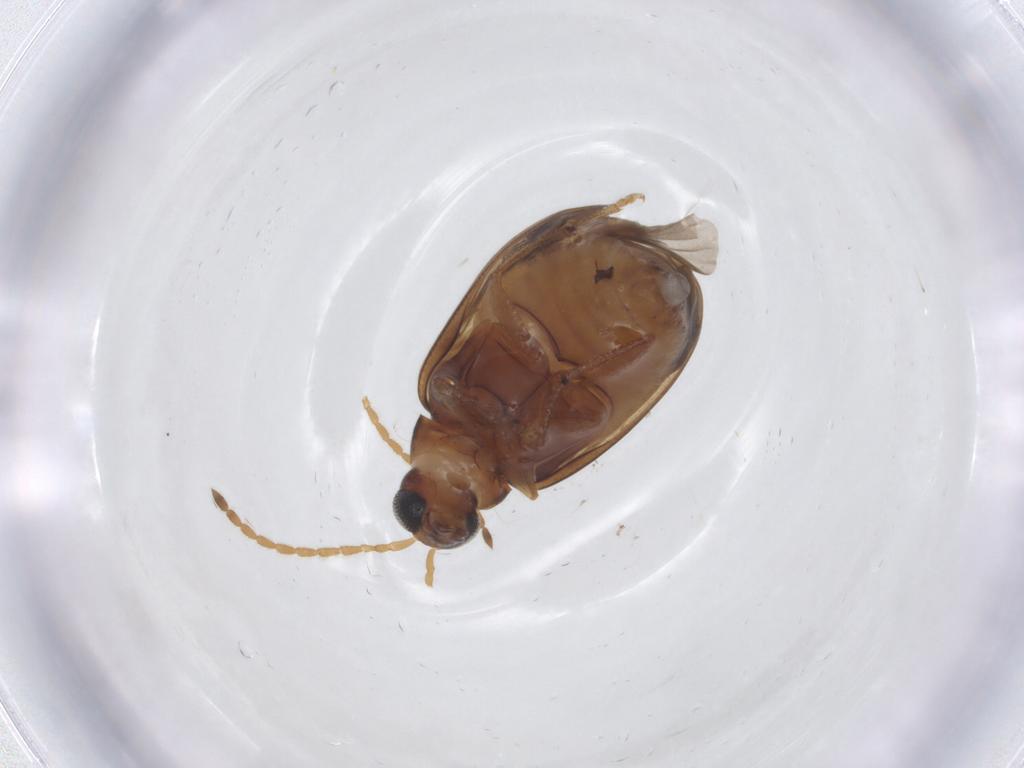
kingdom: Animalia
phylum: Arthropoda
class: Insecta
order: Coleoptera
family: Chrysomelidae
